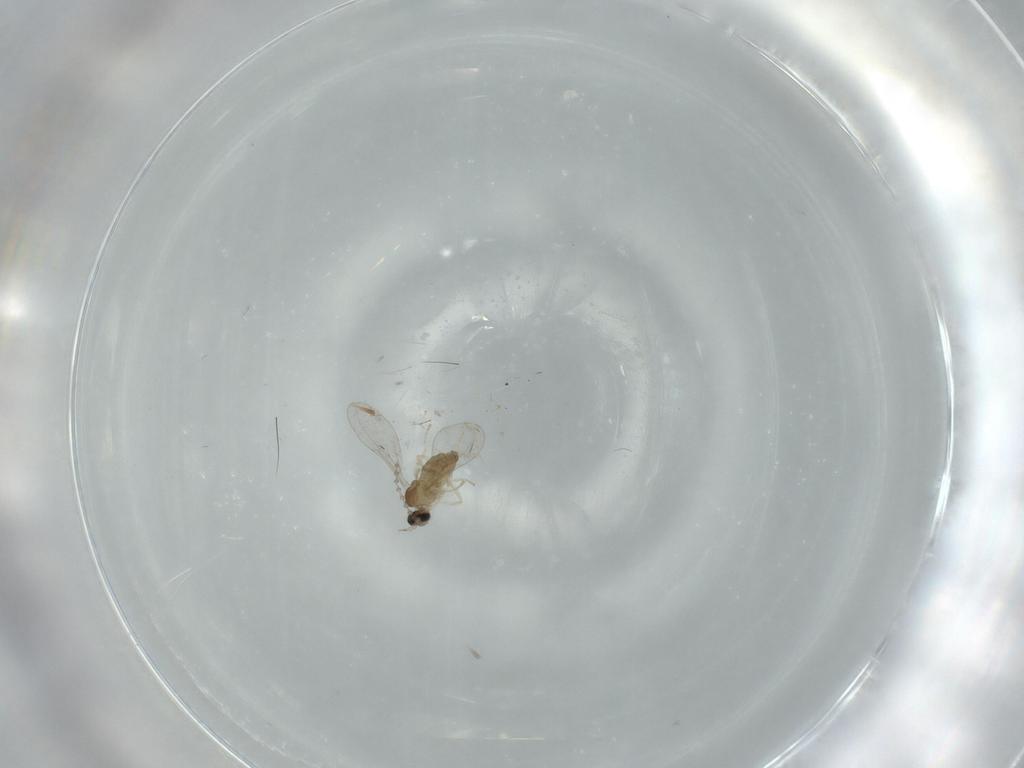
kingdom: Animalia
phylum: Arthropoda
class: Insecta
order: Diptera
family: Cecidomyiidae
